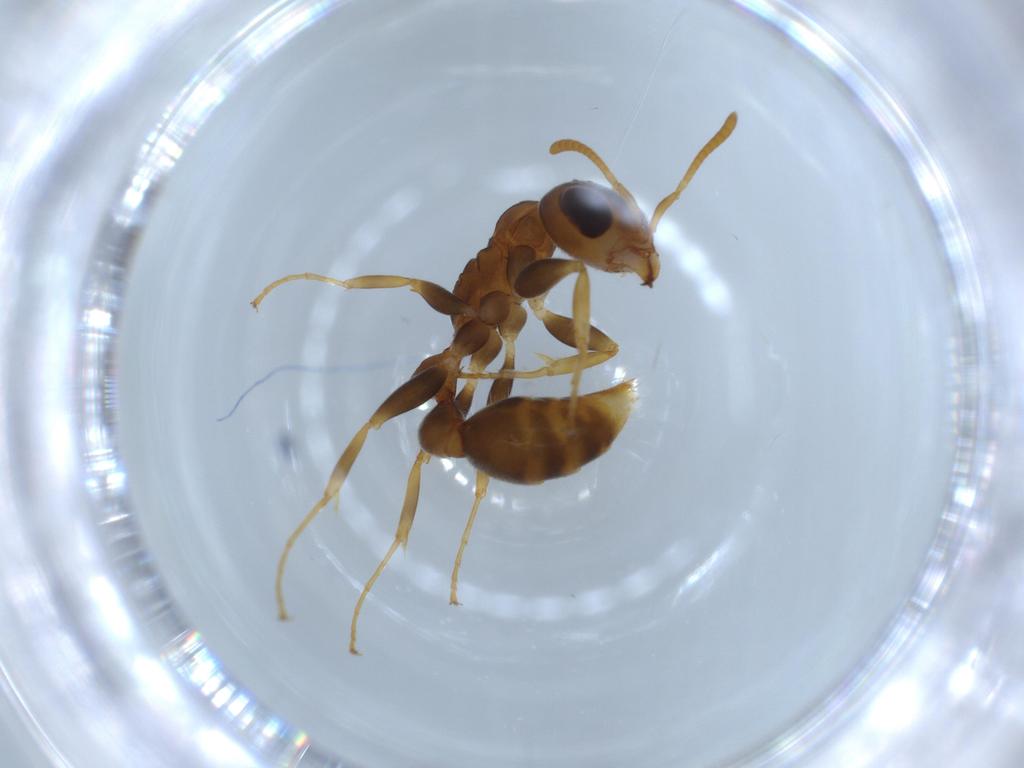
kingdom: Animalia
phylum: Arthropoda
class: Insecta
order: Hymenoptera
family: Formicidae
